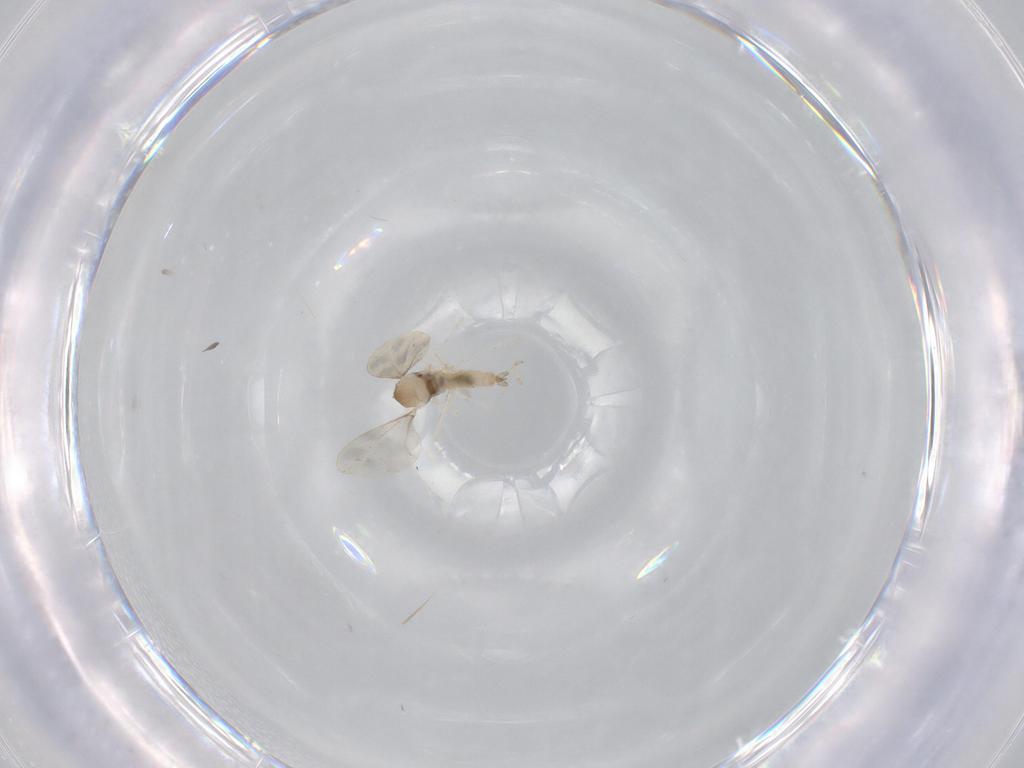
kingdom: Animalia
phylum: Arthropoda
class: Insecta
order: Diptera
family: Cecidomyiidae
